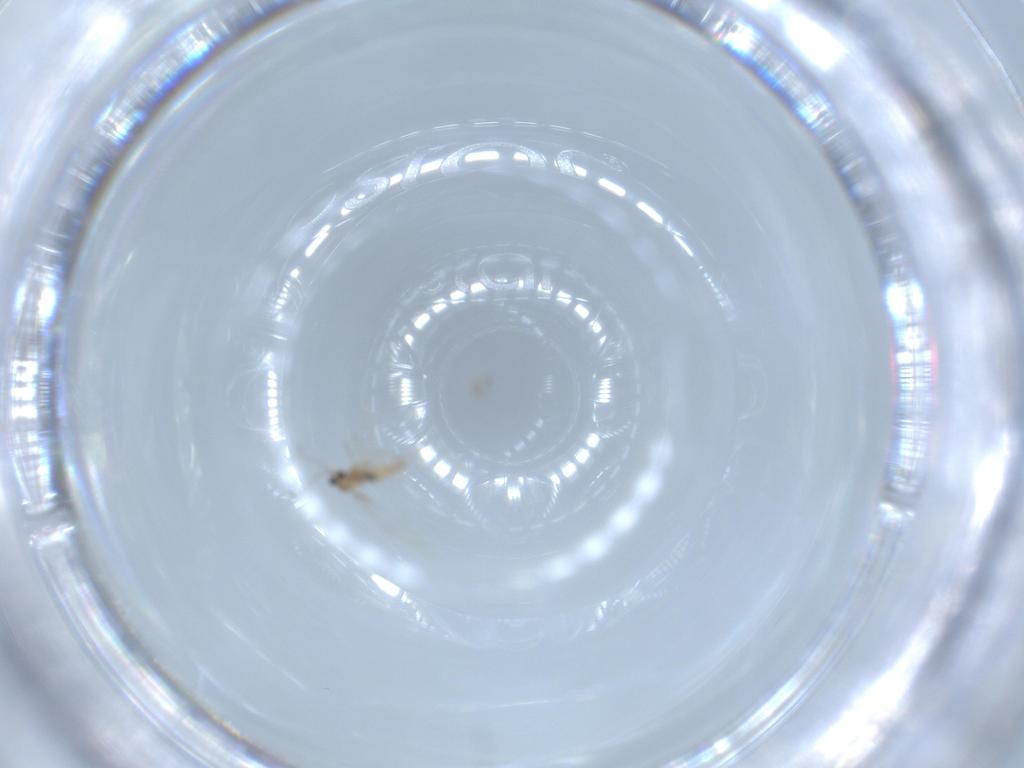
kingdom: Animalia
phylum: Arthropoda
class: Insecta
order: Diptera
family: Cecidomyiidae
